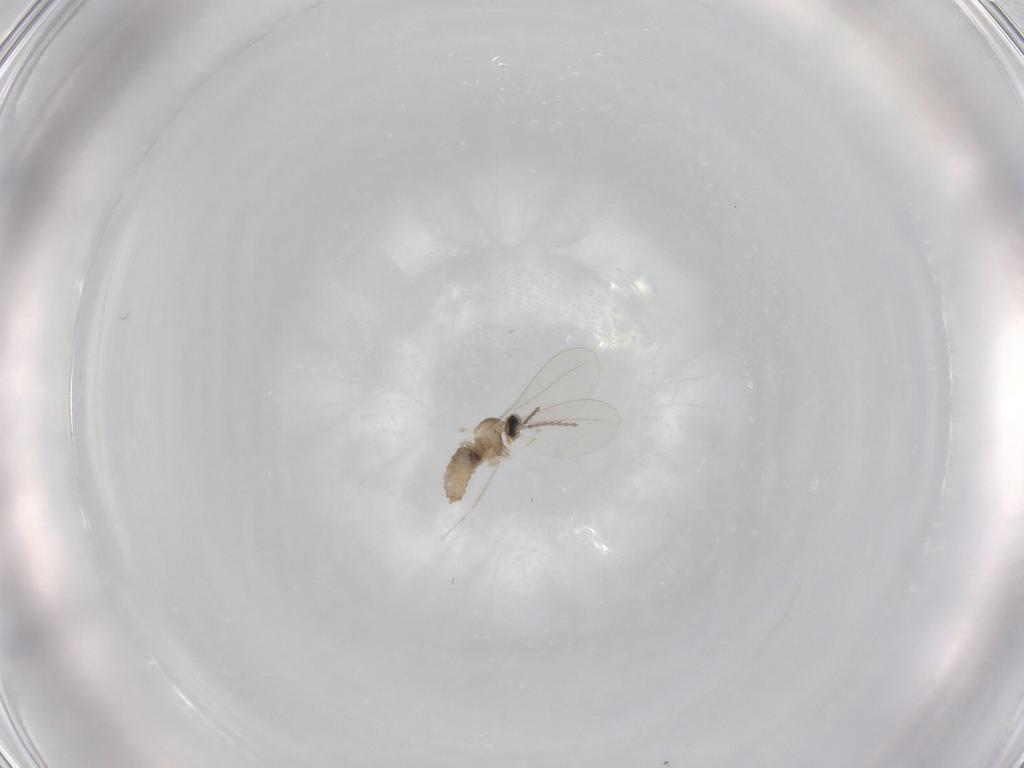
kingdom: Animalia
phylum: Arthropoda
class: Insecta
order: Diptera
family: Cecidomyiidae
